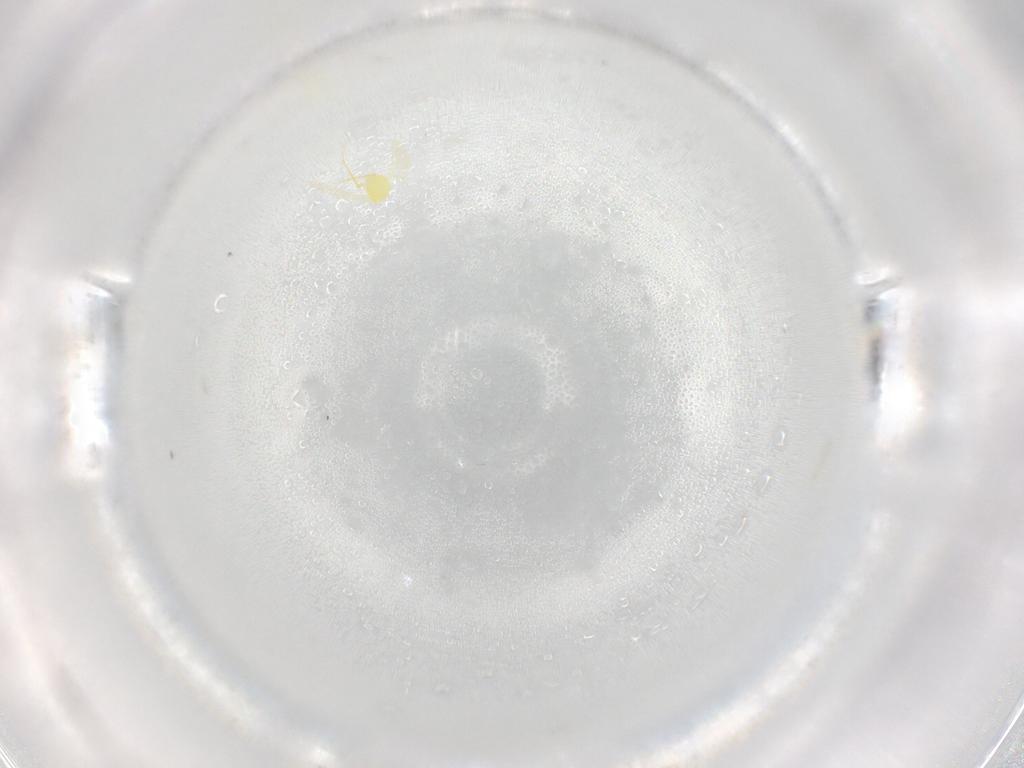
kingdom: Animalia
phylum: Arthropoda
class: Insecta
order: Hemiptera
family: Aleyrodidae
